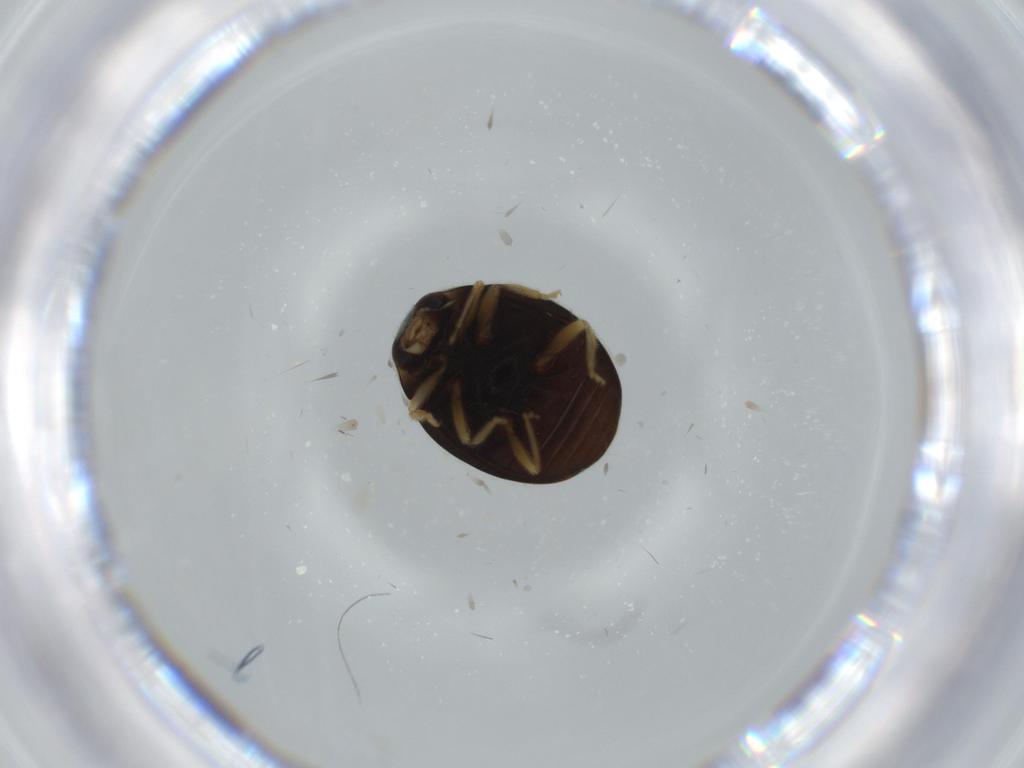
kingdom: Animalia
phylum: Arthropoda
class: Insecta
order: Coleoptera
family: Coccinellidae
